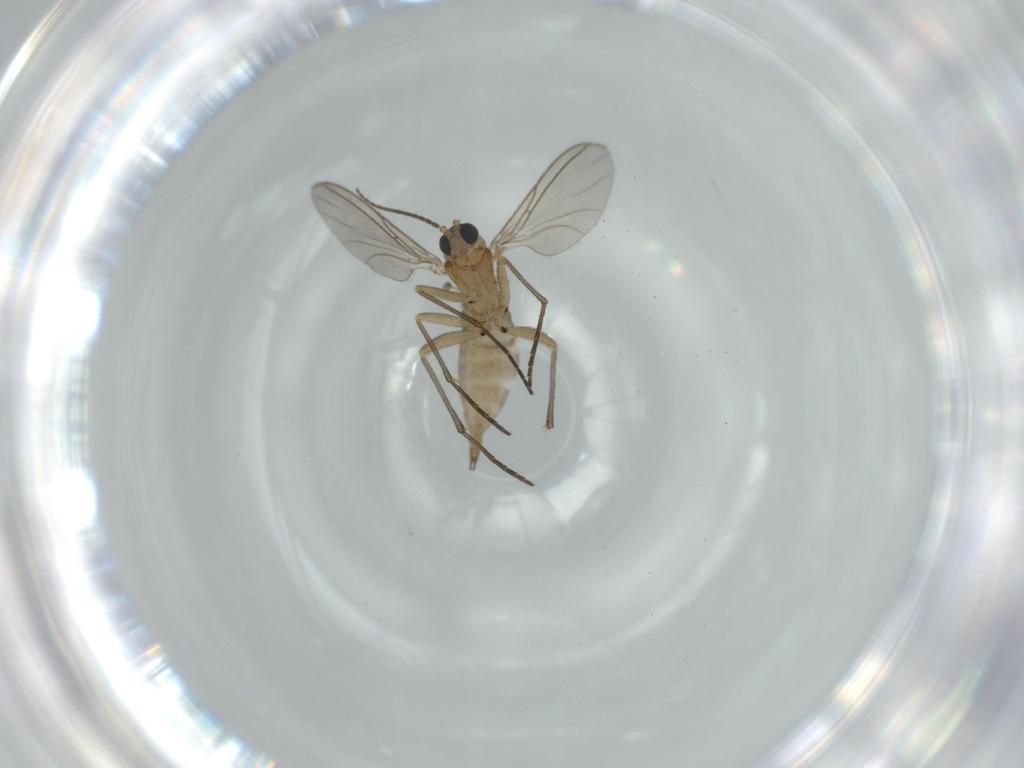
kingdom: Animalia
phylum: Arthropoda
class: Insecta
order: Diptera
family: Sciaridae
